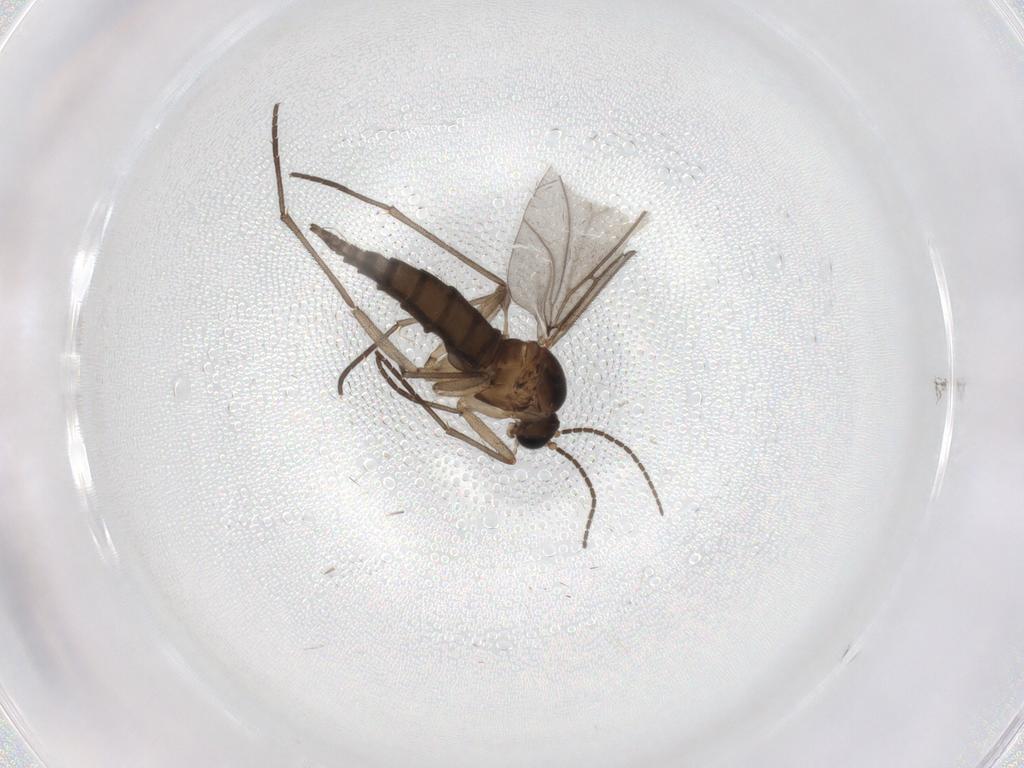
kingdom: Animalia
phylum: Arthropoda
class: Insecta
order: Diptera
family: Limoniidae
